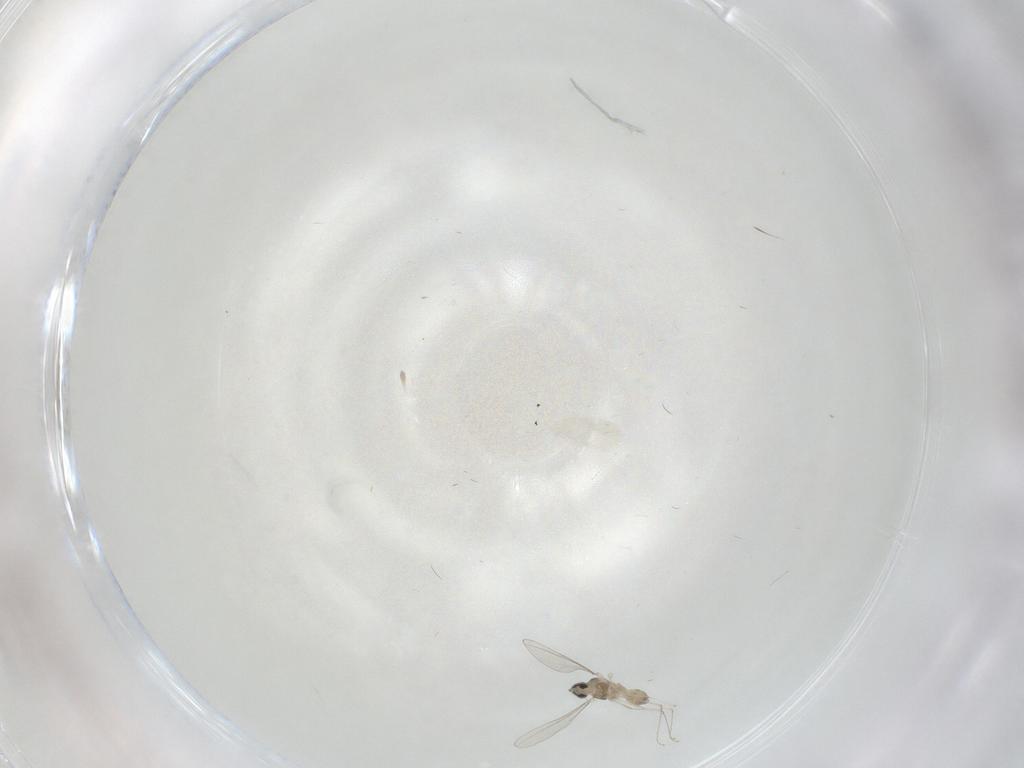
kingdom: Animalia
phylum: Arthropoda
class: Insecta
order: Diptera
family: Cecidomyiidae
